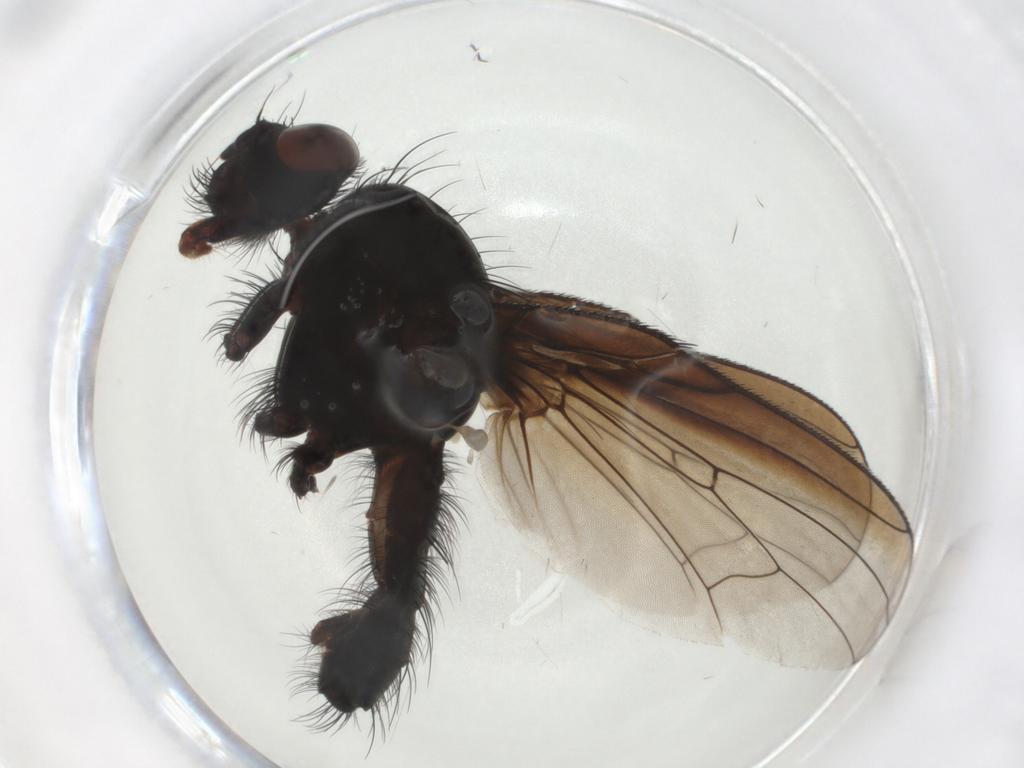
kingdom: Animalia
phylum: Arthropoda
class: Insecta
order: Diptera
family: Anthomyiidae
